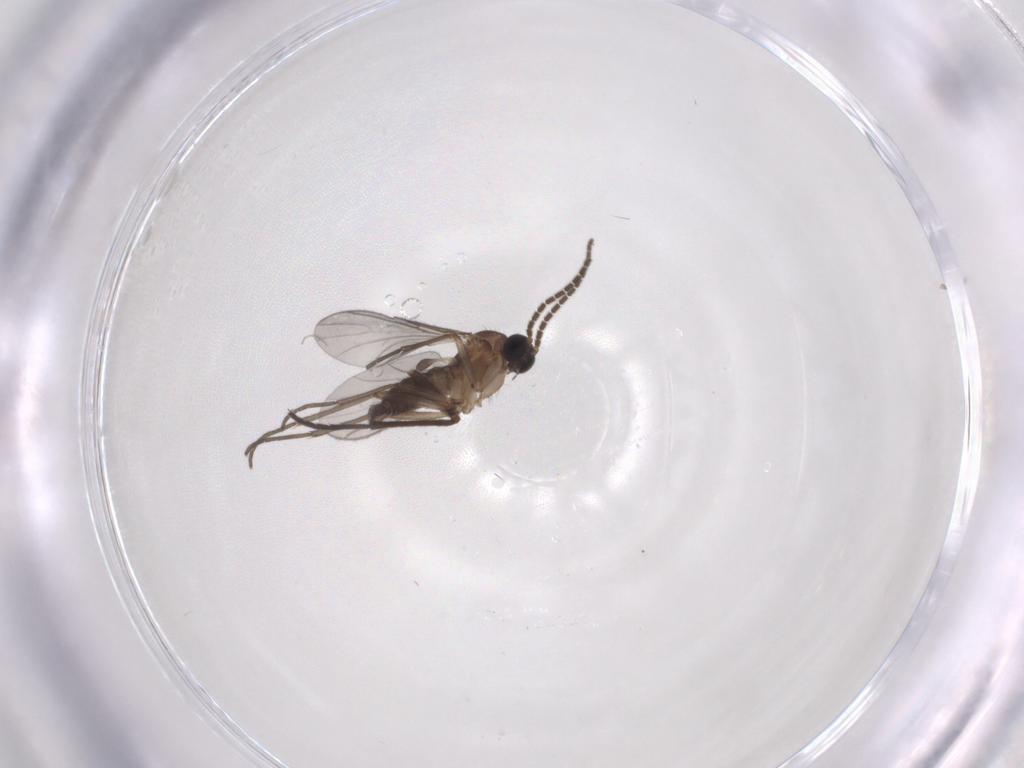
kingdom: Animalia
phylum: Arthropoda
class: Insecta
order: Diptera
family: Sciaridae
